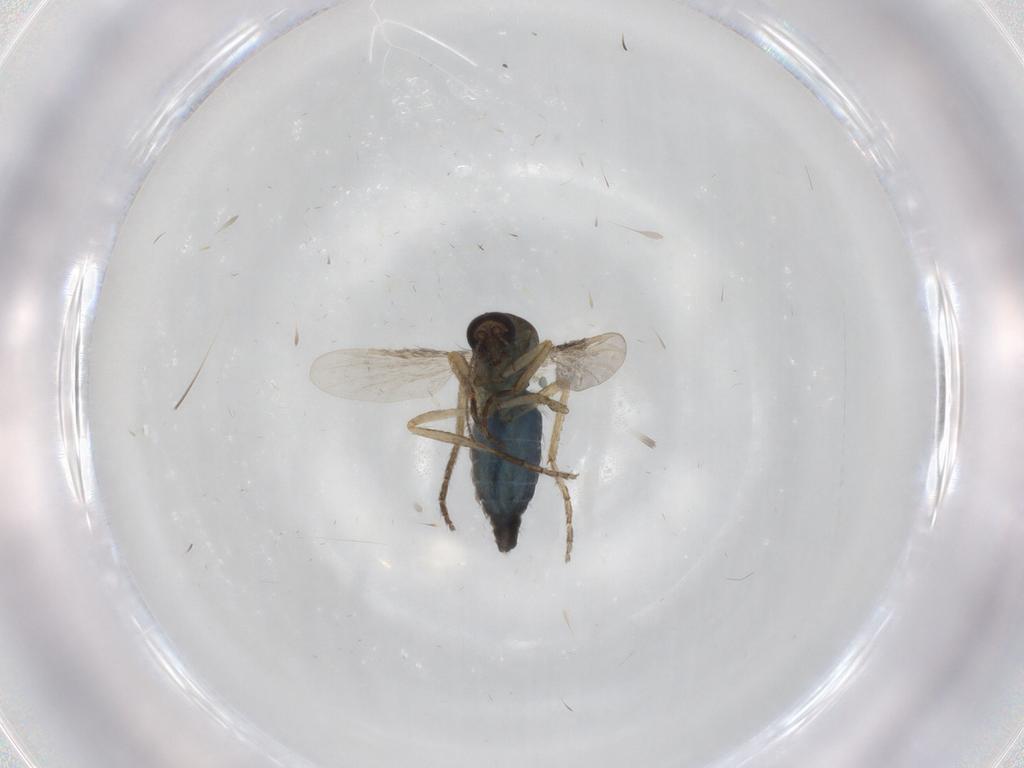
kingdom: Animalia
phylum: Arthropoda
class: Insecta
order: Diptera
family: Ceratopogonidae
